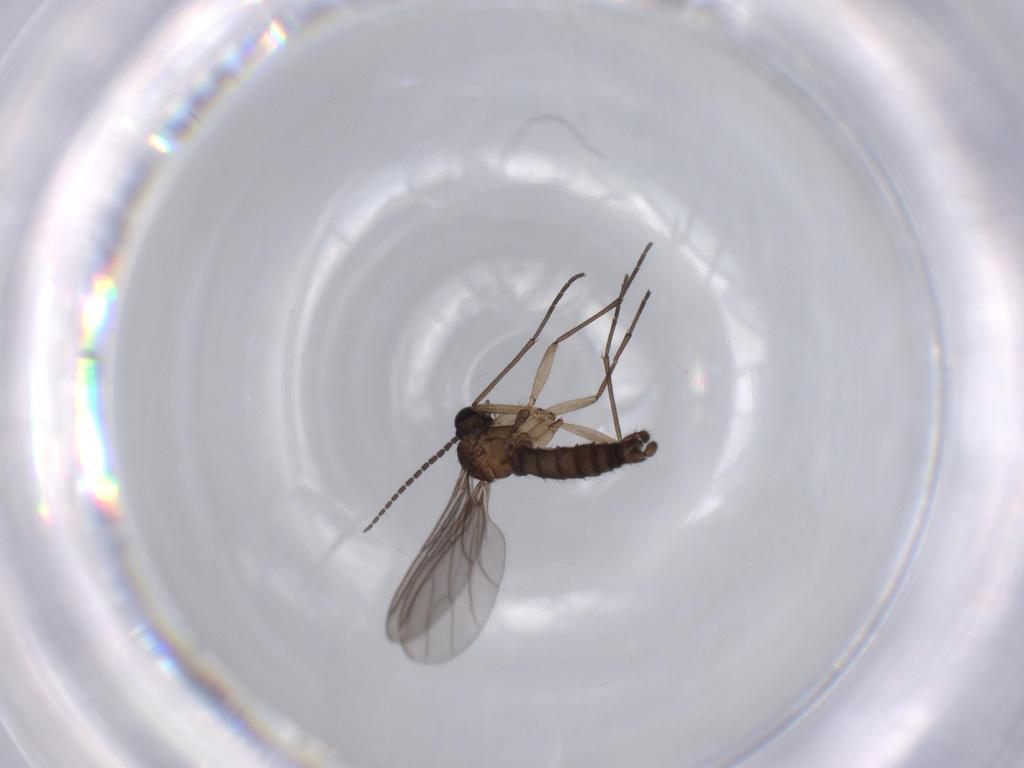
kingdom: Animalia
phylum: Arthropoda
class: Insecta
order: Diptera
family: Sciaridae
